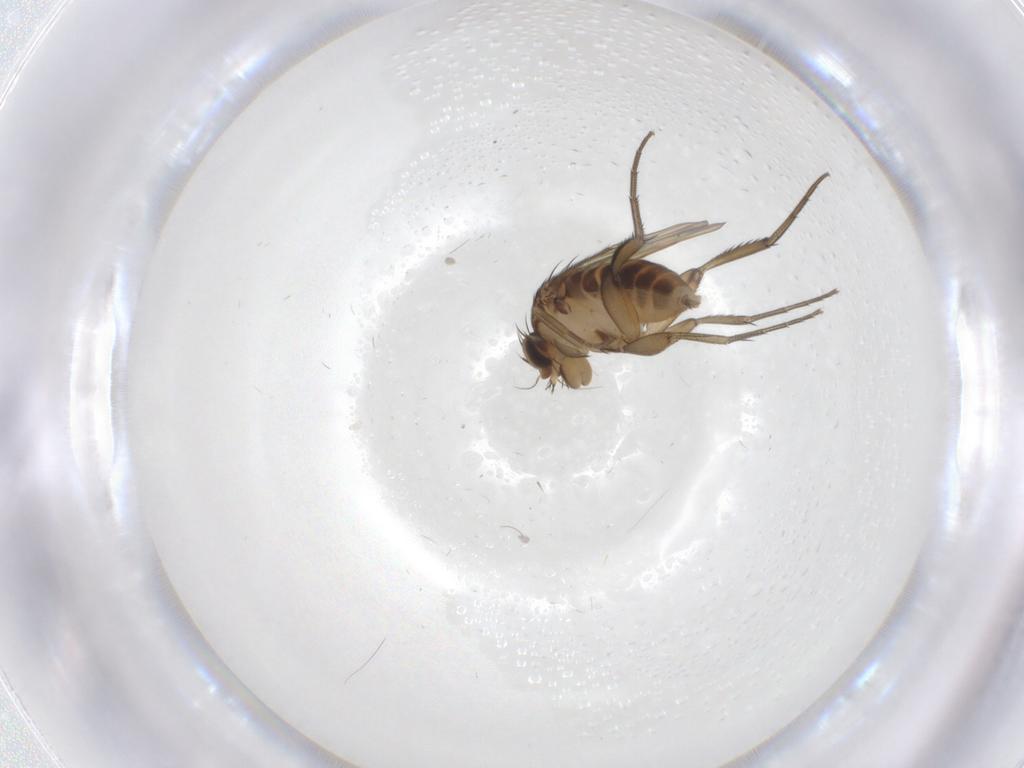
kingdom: Animalia
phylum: Arthropoda
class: Insecta
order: Diptera
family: Phoridae
